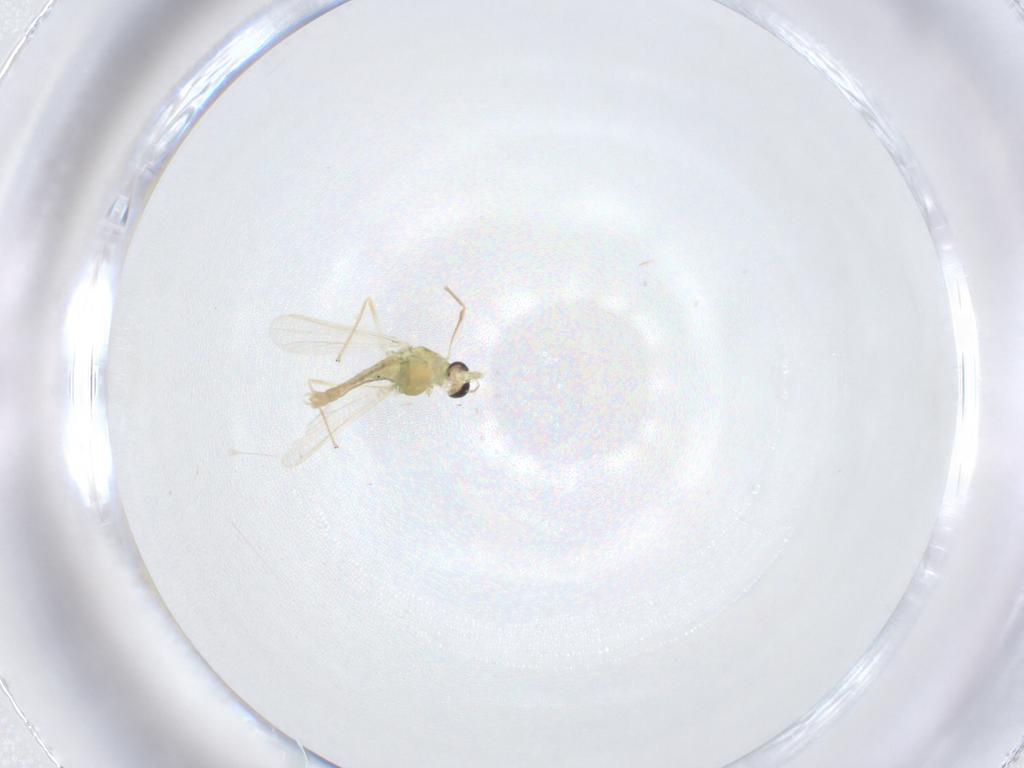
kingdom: Animalia
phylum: Arthropoda
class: Insecta
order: Diptera
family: Chironomidae
